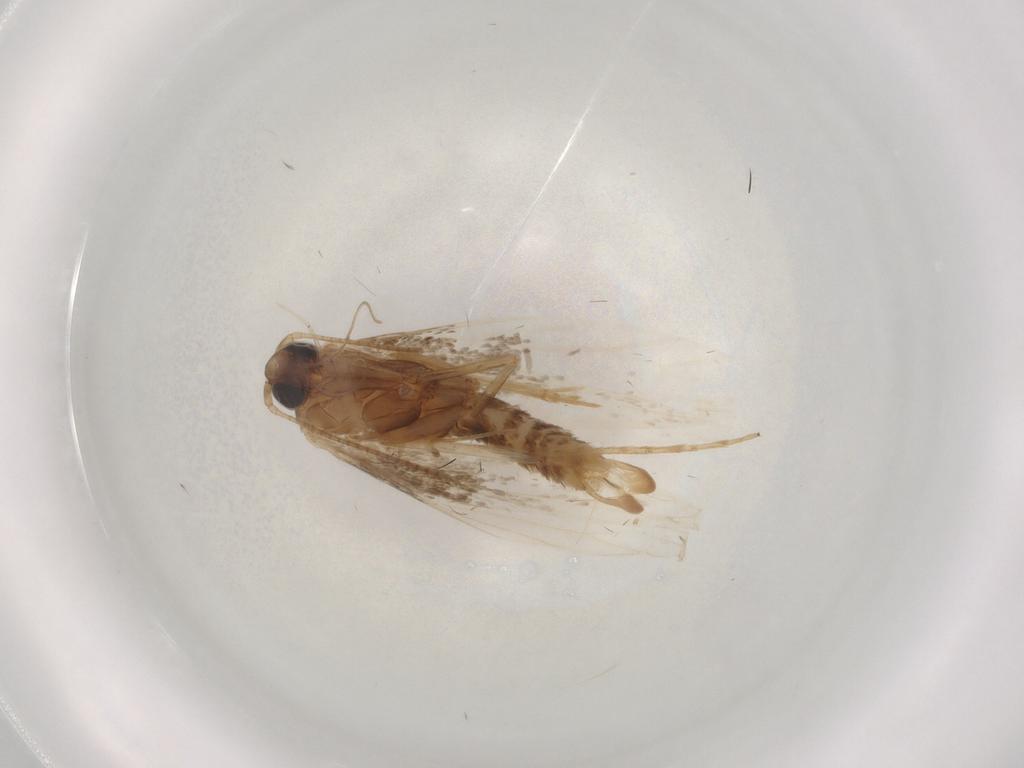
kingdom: Animalia
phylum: Arthropoda
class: Insecta
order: Lepidoptera
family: Geometridae
